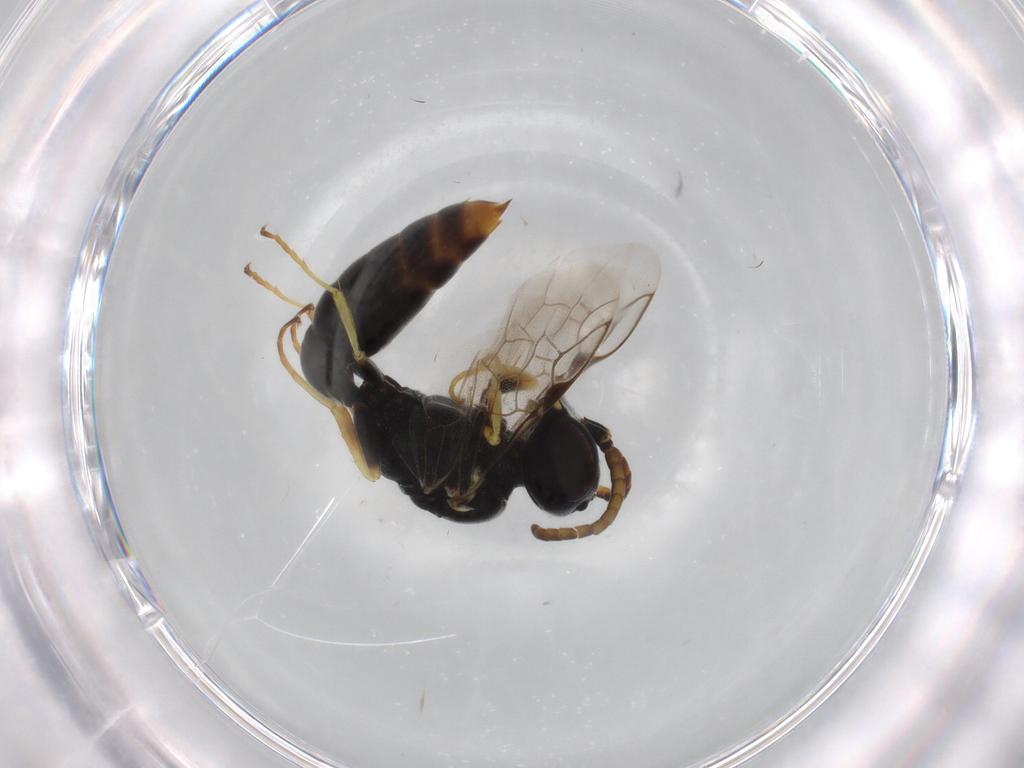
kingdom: Animalia
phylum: Arthropoda
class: Insecta
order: Hymenoptera
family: Crabronidae
